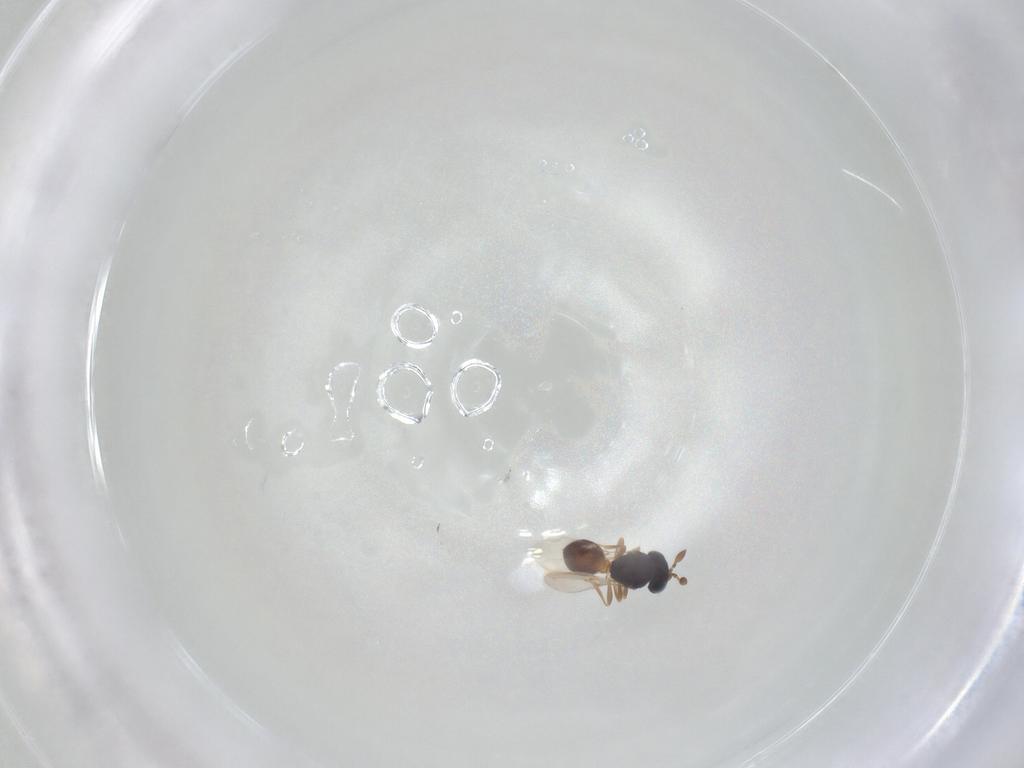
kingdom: Animalia
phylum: Arthropoda
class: Insecta
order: Hymenoptera
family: Scelionidae
